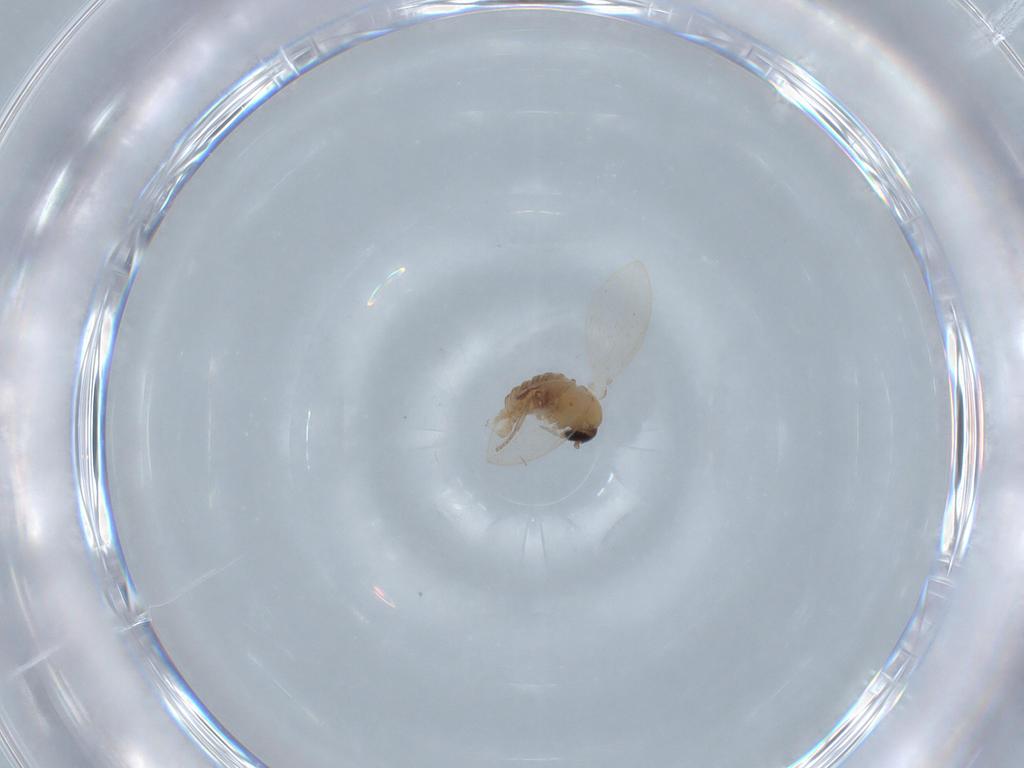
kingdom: Animalia
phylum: Arthropoda
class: Insecta
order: Diptera
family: Psychodidae
